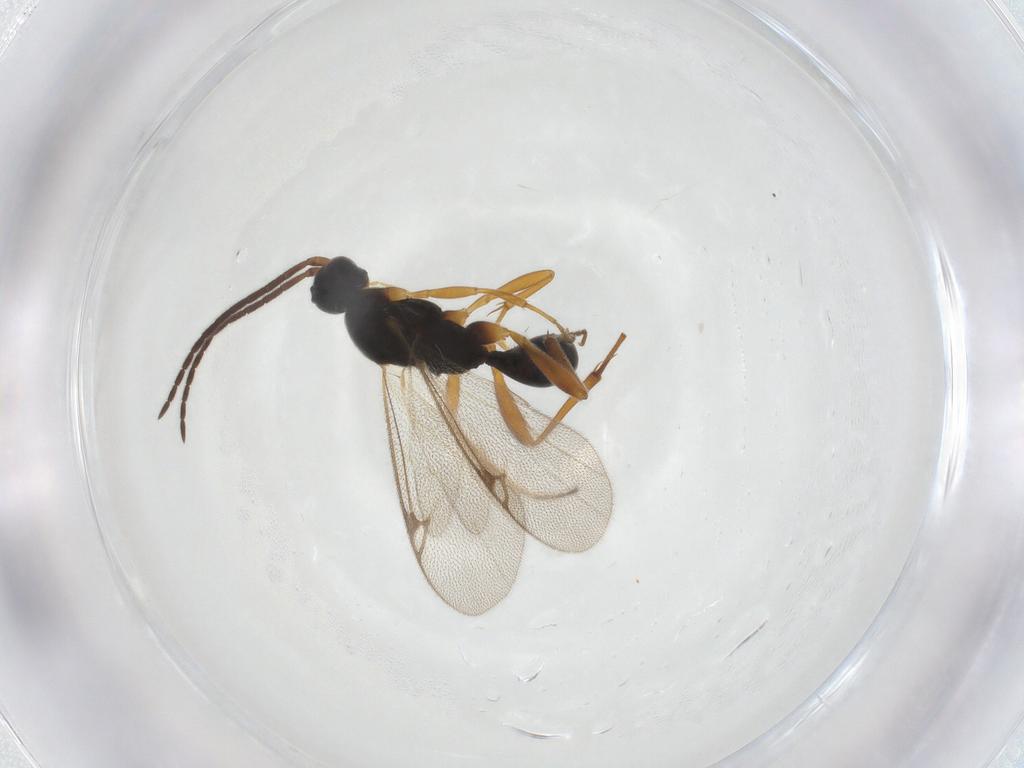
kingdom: Animalia
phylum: Arthropoda
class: Insecta
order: Hymenoptera
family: Proctotrupidae
